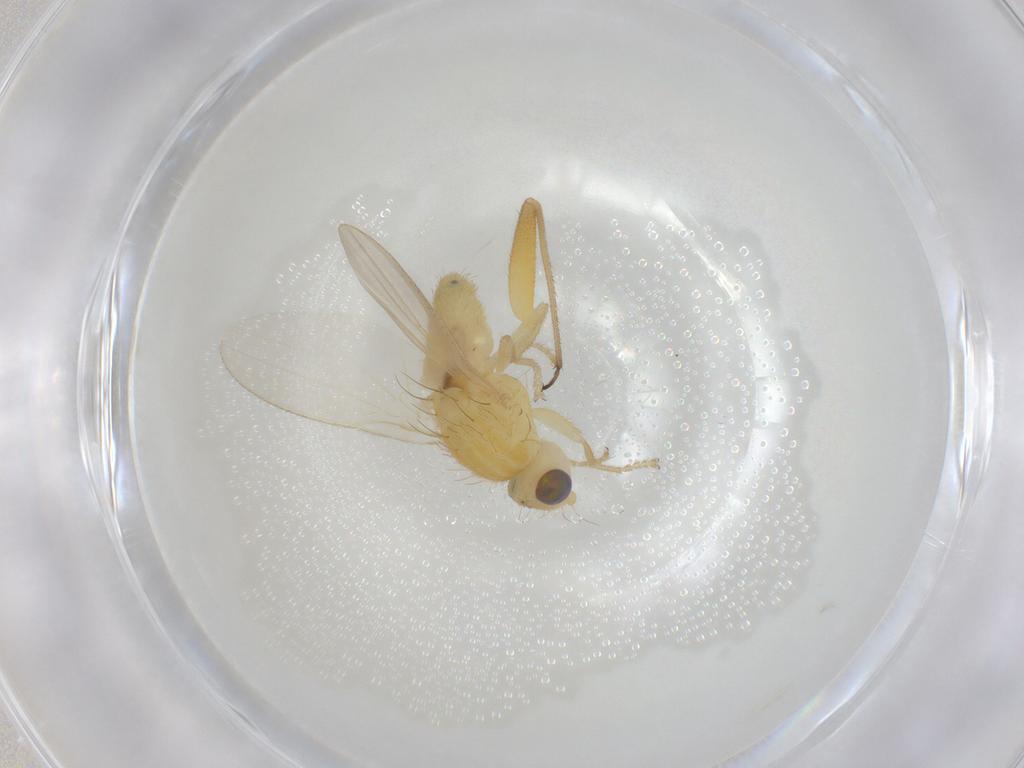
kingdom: Animalia
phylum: Arthropoda
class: Insecta
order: Diptera
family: Chyromyidae
